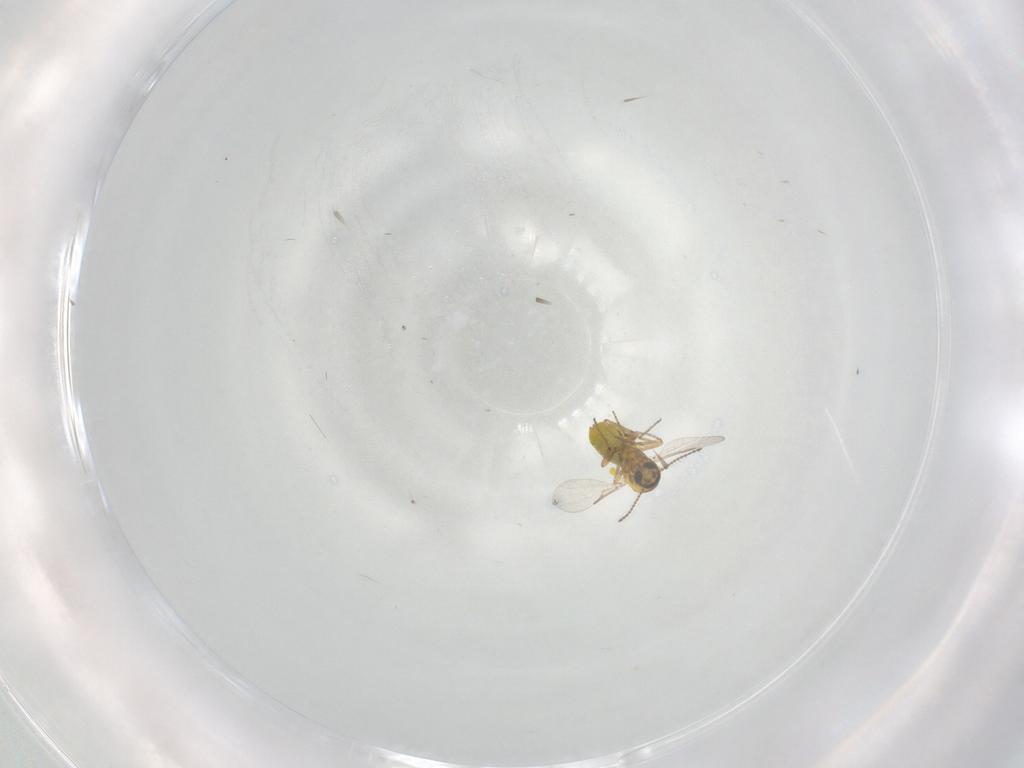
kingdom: Animalia
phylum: Arthropoda
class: Insecta
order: Diptera
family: Ceratopogonidae
